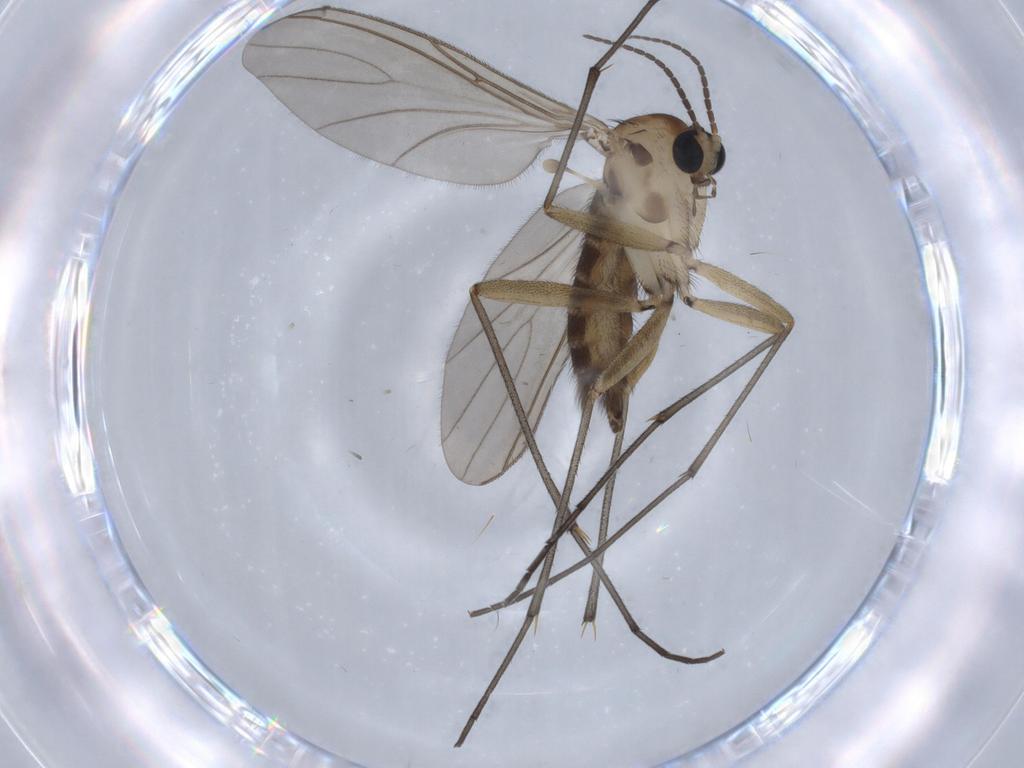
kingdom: Animalia
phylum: Arthropoda
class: Insecta
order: Diptera
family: Sciaridae
